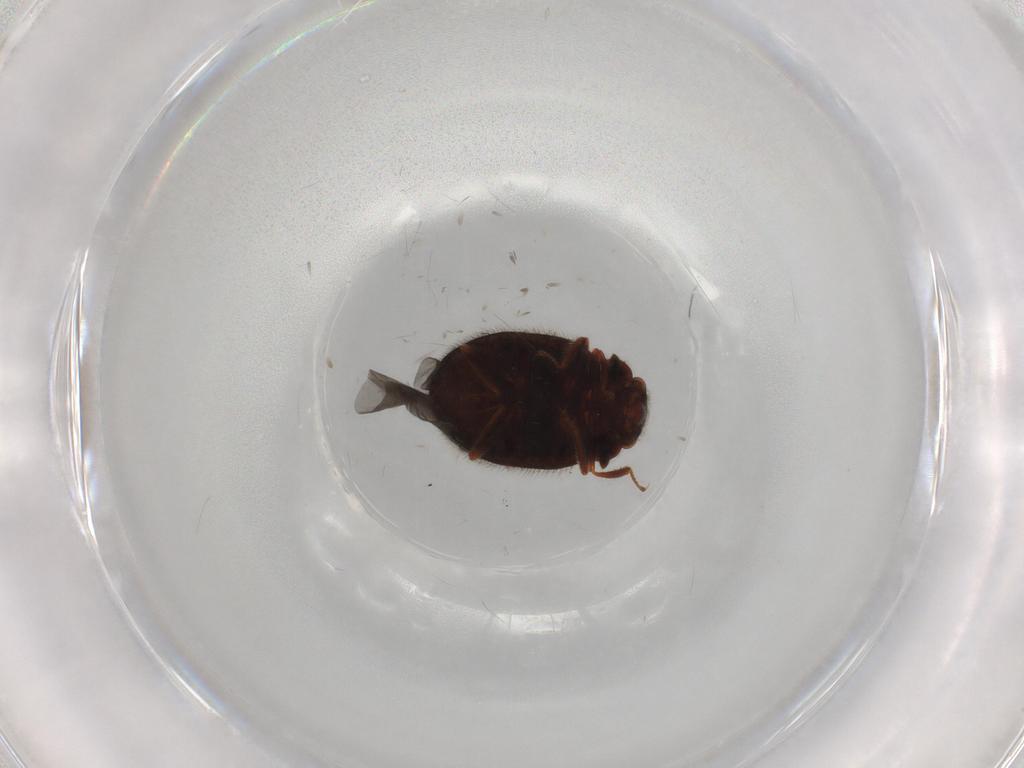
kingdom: Animalia
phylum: Arthropoda
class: Insecta
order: Coleoptera
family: Sphindidae
